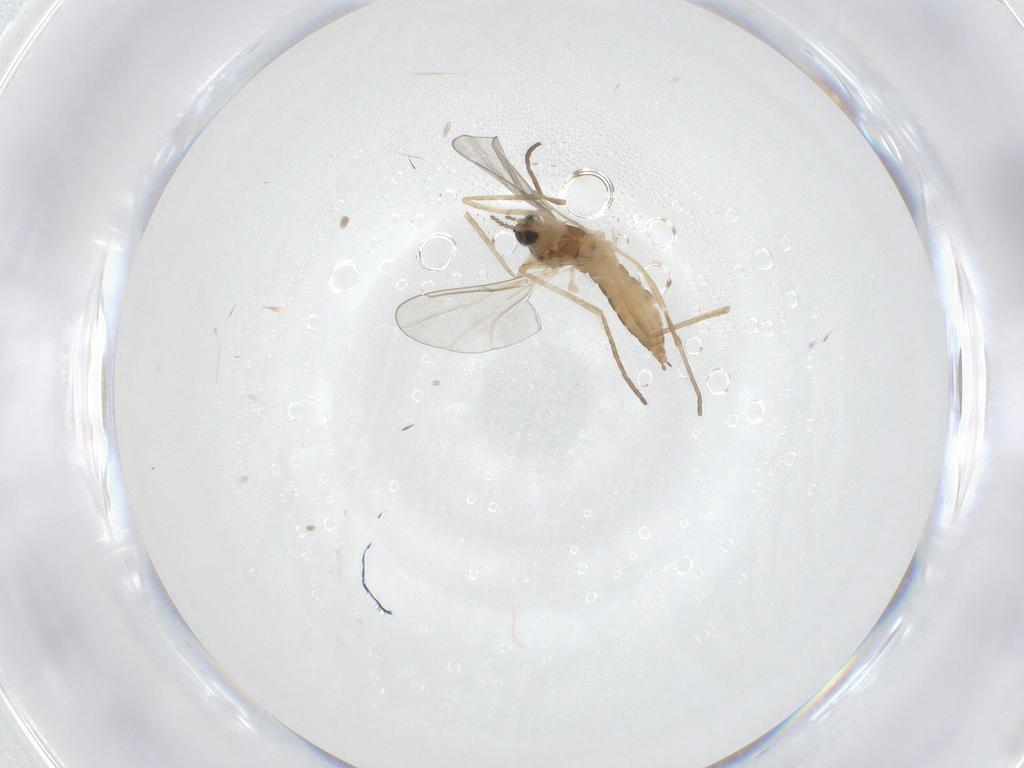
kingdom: Animalia
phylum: Arthropoda
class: Insecta
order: Diptera
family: Cecidomyiidae
